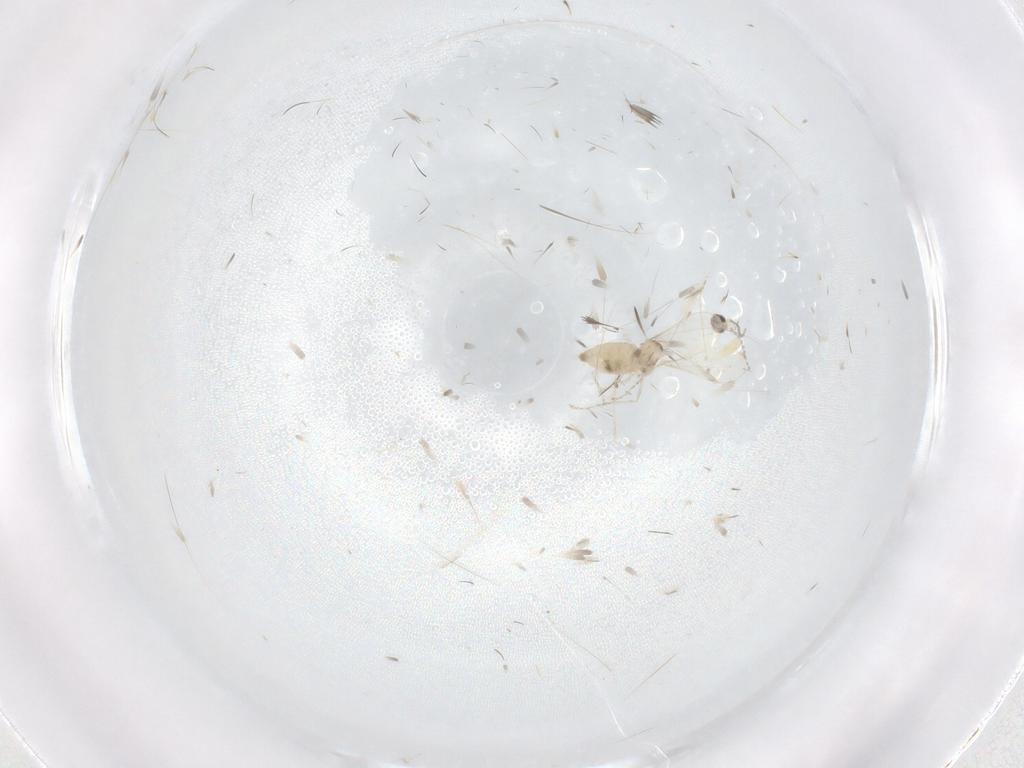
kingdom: Animalia
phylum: Arthropoda
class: Insecta
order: Diptera
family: Cecidomyiidae
